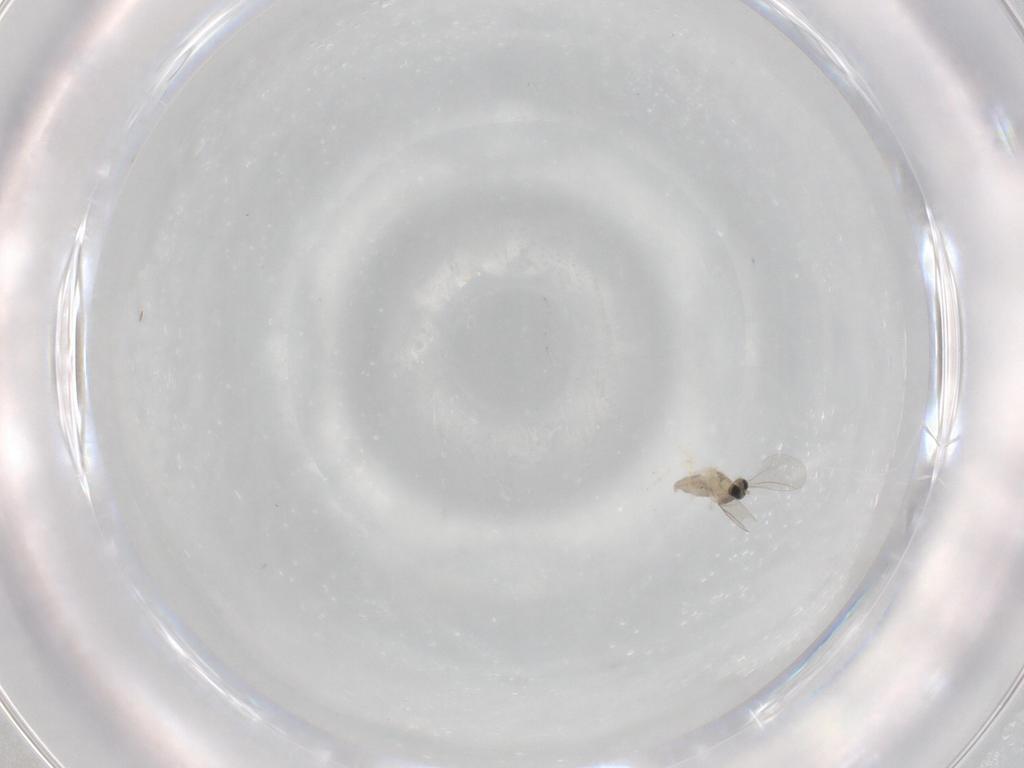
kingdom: Animalia
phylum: Arthropoda
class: Insecta
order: Diptera
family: Cecidomyiidae
